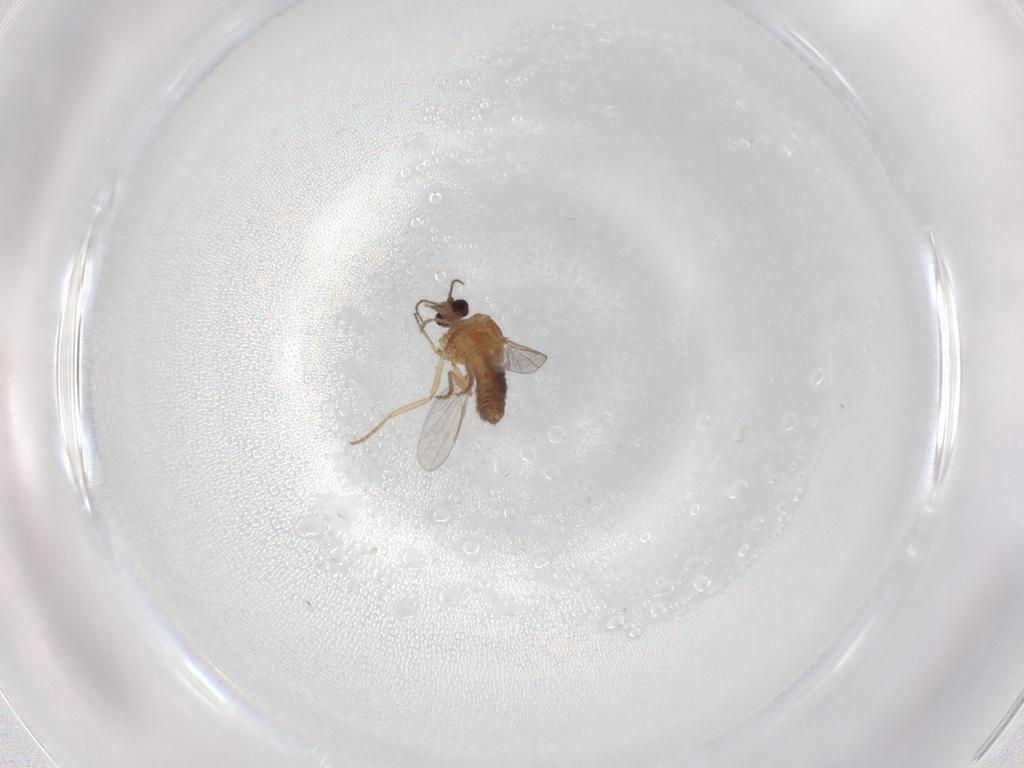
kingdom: Animalia
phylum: Arthropoda
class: Insecta
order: Diptera
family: Ceratopogonidae
